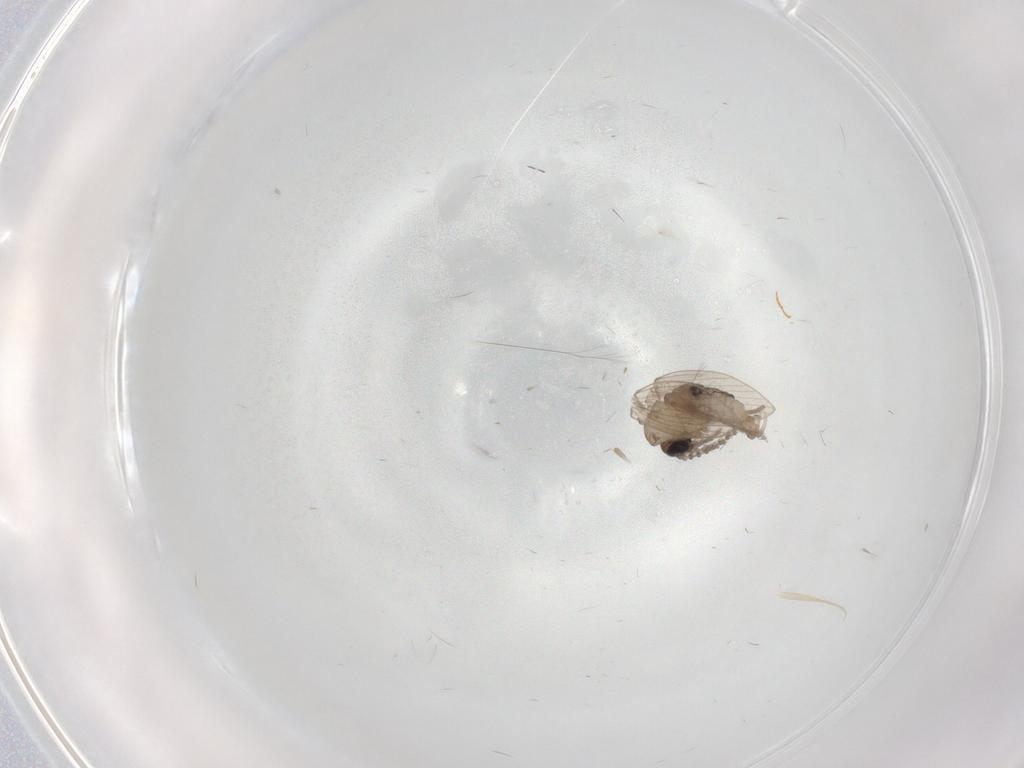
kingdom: Animalia
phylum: Arthropoda
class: Insecta
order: Diptera
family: Psychodidae
